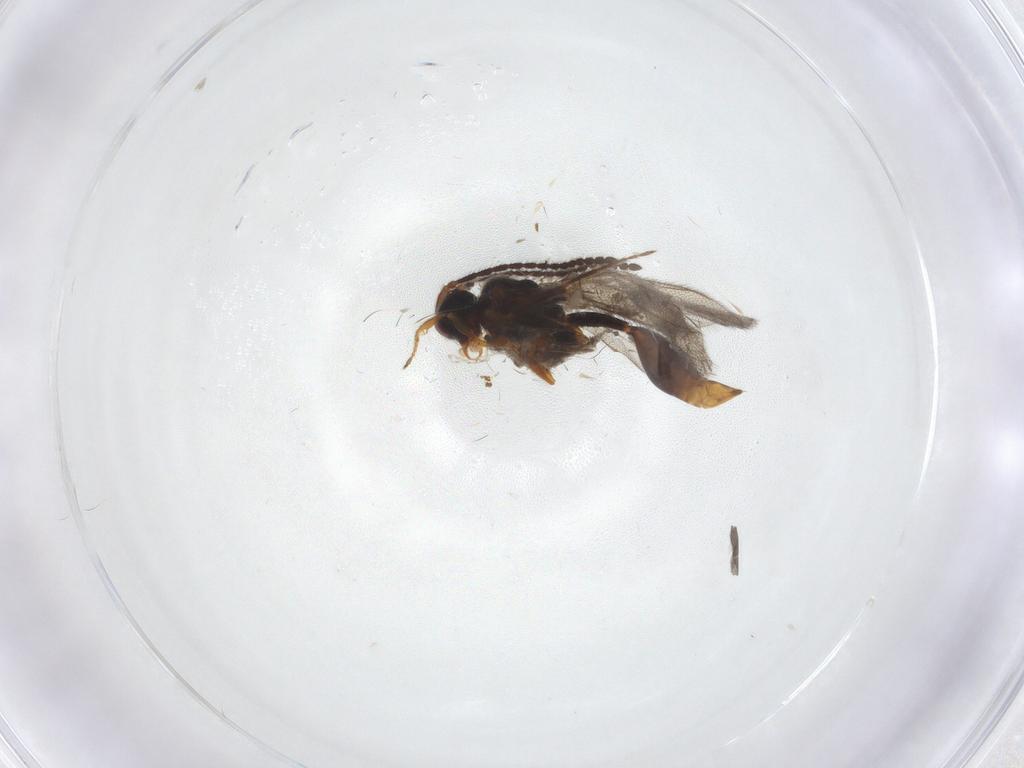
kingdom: Animalia
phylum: Arthropoda
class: Insecta
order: Hymenoptera
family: Diapriidae
